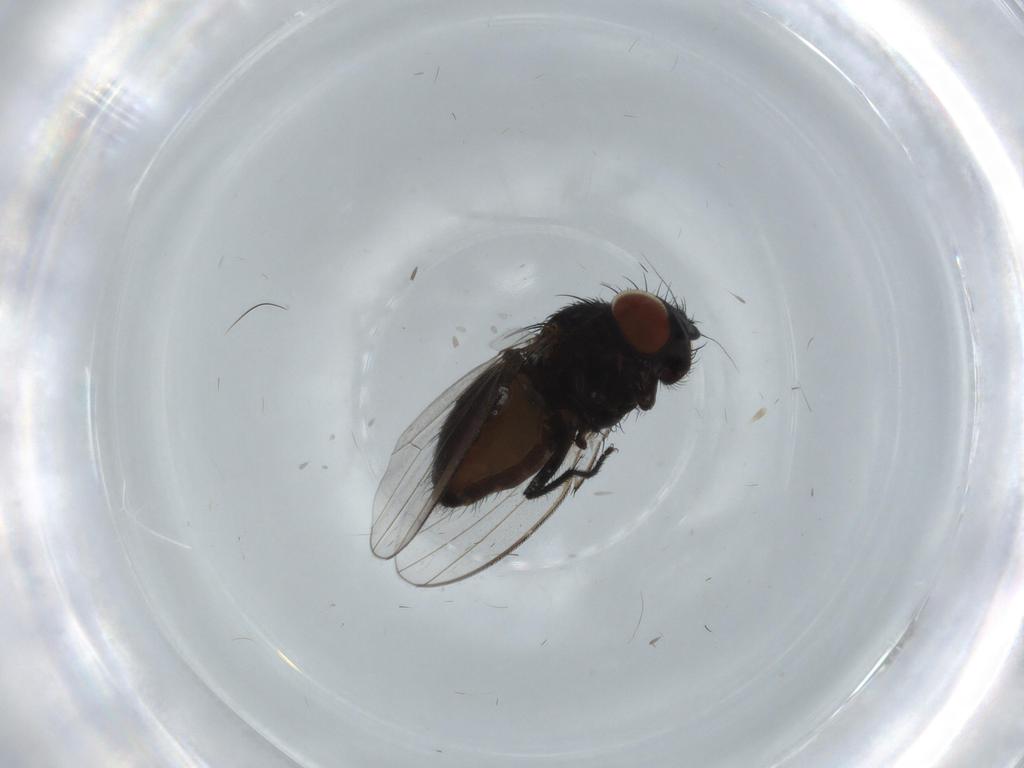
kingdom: Animalia
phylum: Arthropoda
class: Insecta
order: Diptera
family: Milichiidae
